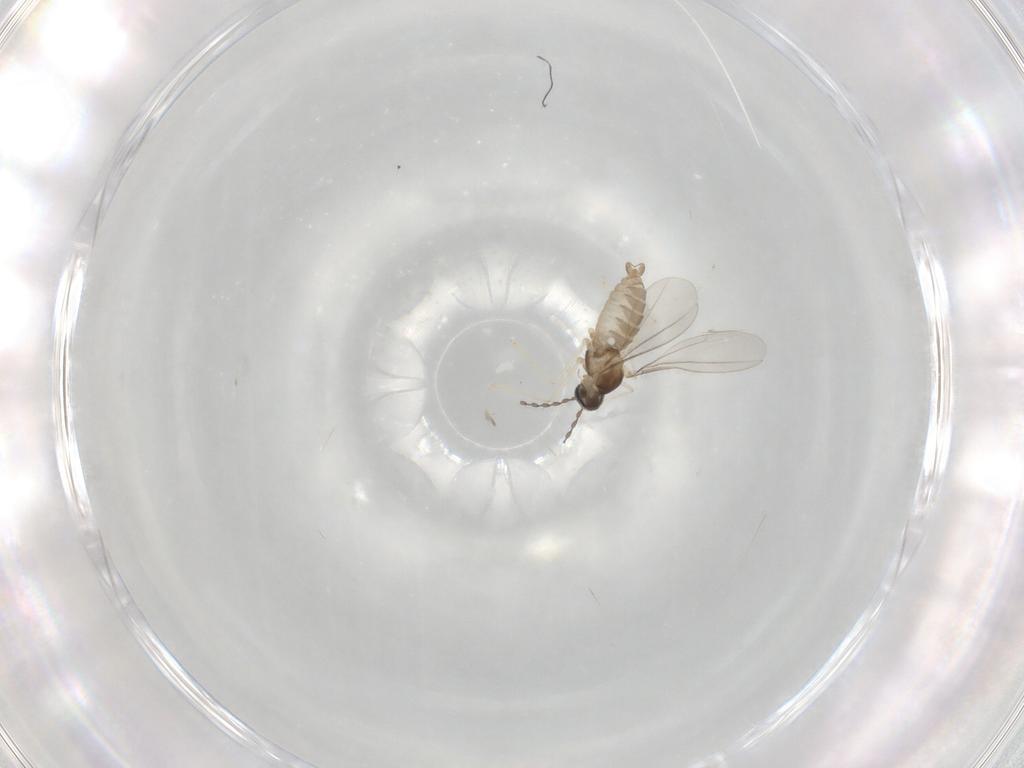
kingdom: Animalia
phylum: Arthropoda
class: Insecta
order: Diptera
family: Cecidomyiidae
